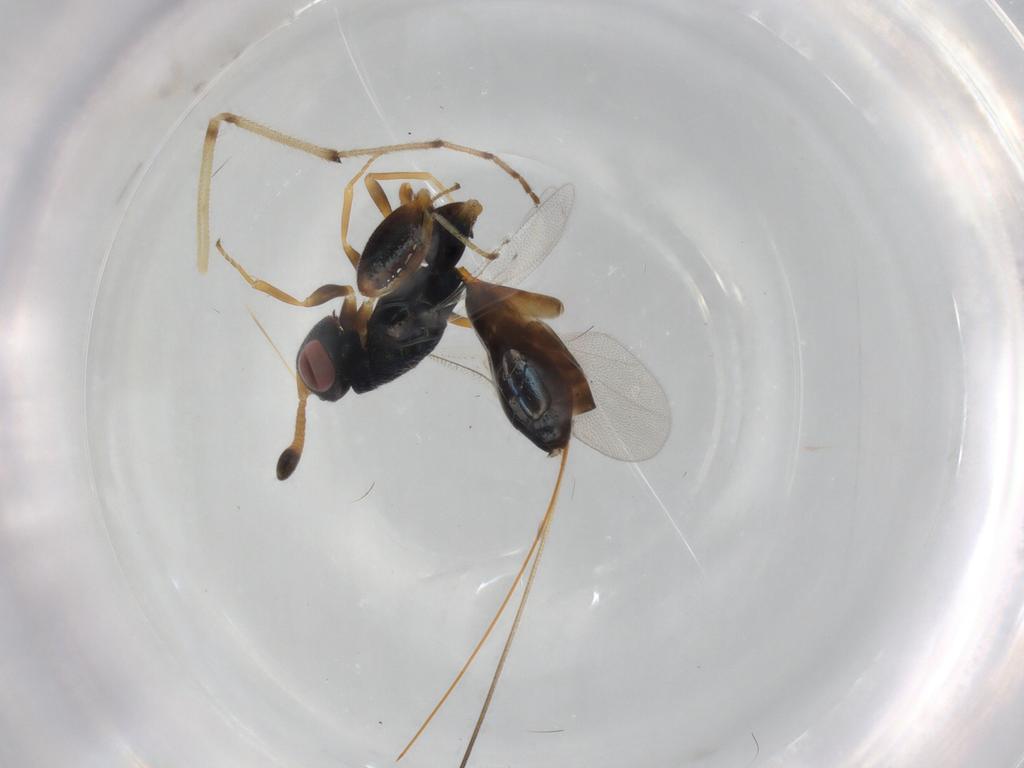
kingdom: Animalia
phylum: Arthropoda
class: Insecta
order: Hymenoptera
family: Torymidae
